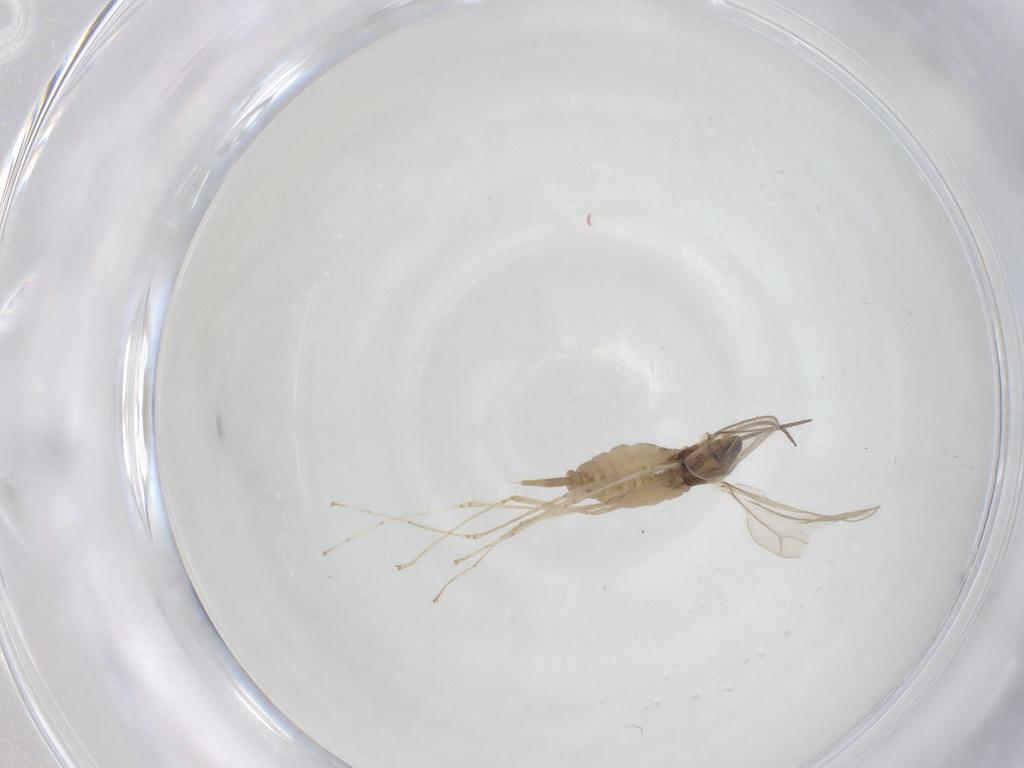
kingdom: Animalia
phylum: Arthropoda
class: Insecta
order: Diptera
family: Cecidomyiidae
